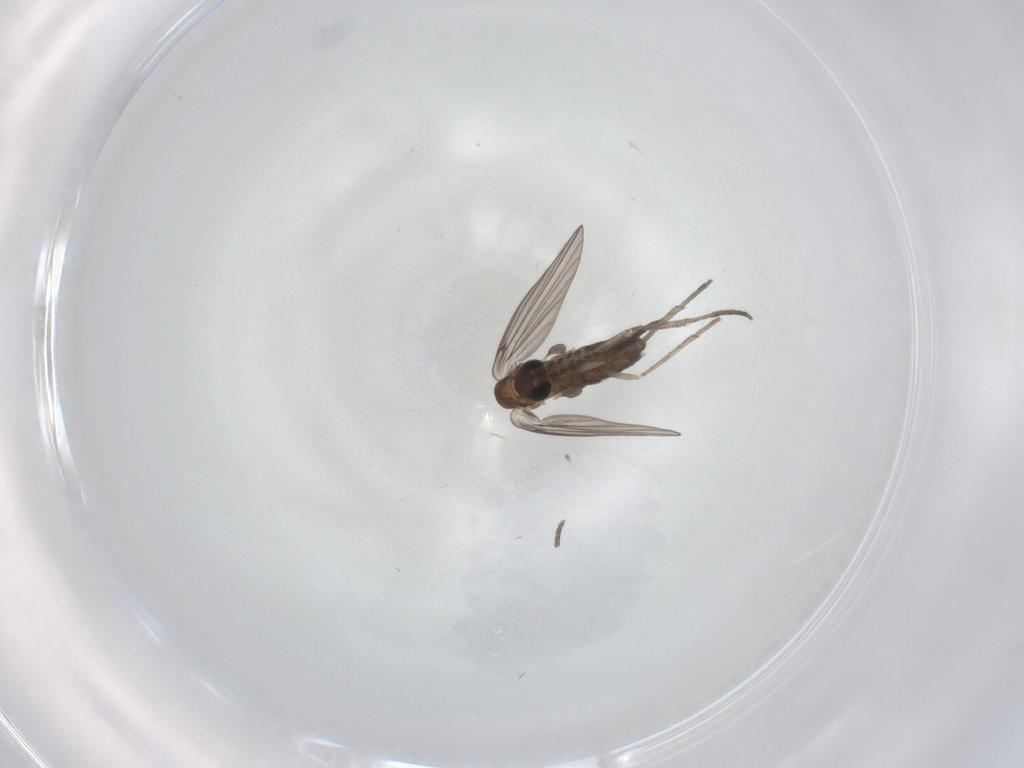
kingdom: Animalia
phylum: Arthropoda
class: Insecta
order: Diptera
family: Psychodidae
